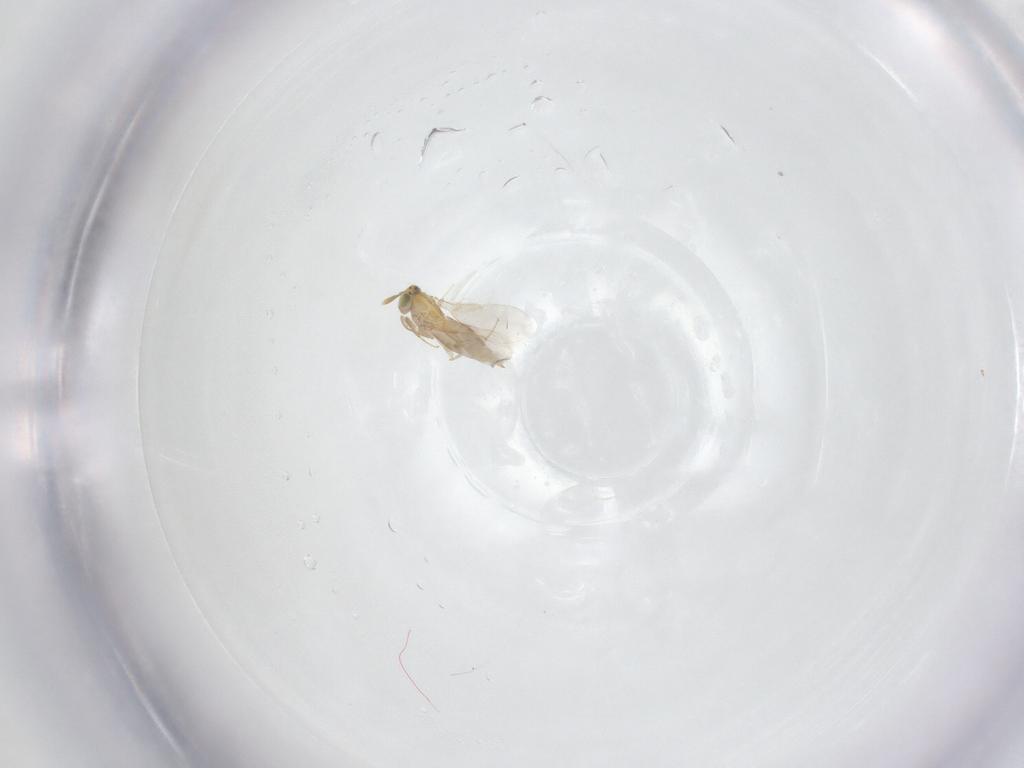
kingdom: Animalia
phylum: Arthropoda
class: Insecta
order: Hymenoptera
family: Aphelinidae
